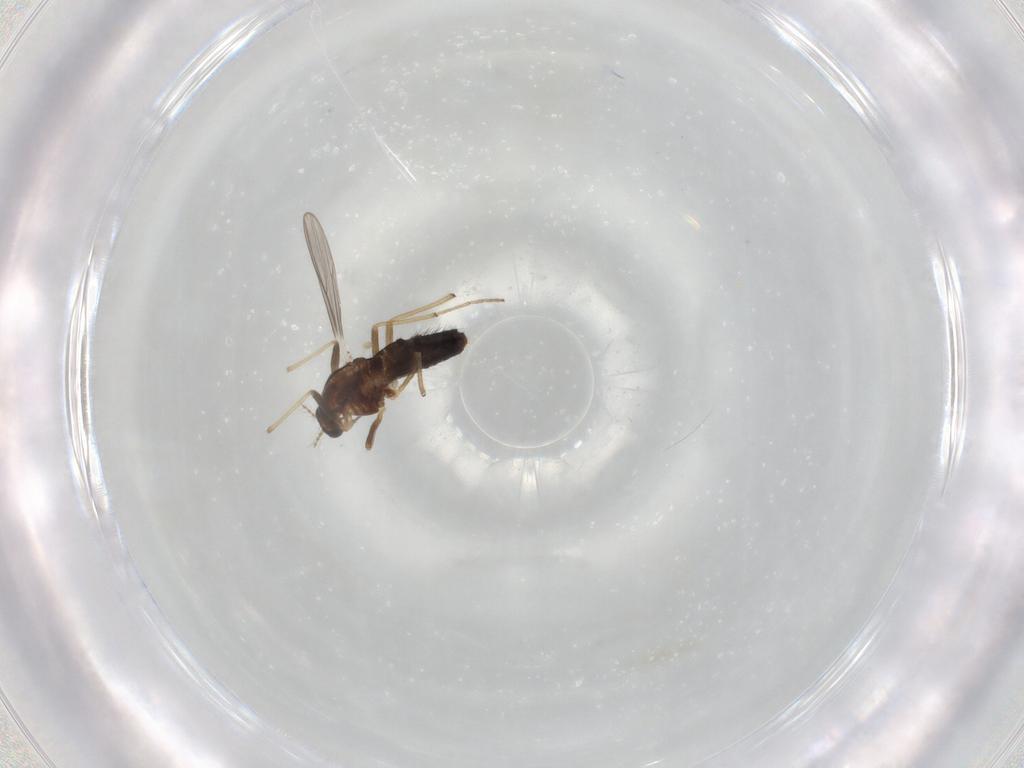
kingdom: Animalia
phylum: Arthropoda
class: Insecta
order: Diptera
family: Chironomidae
